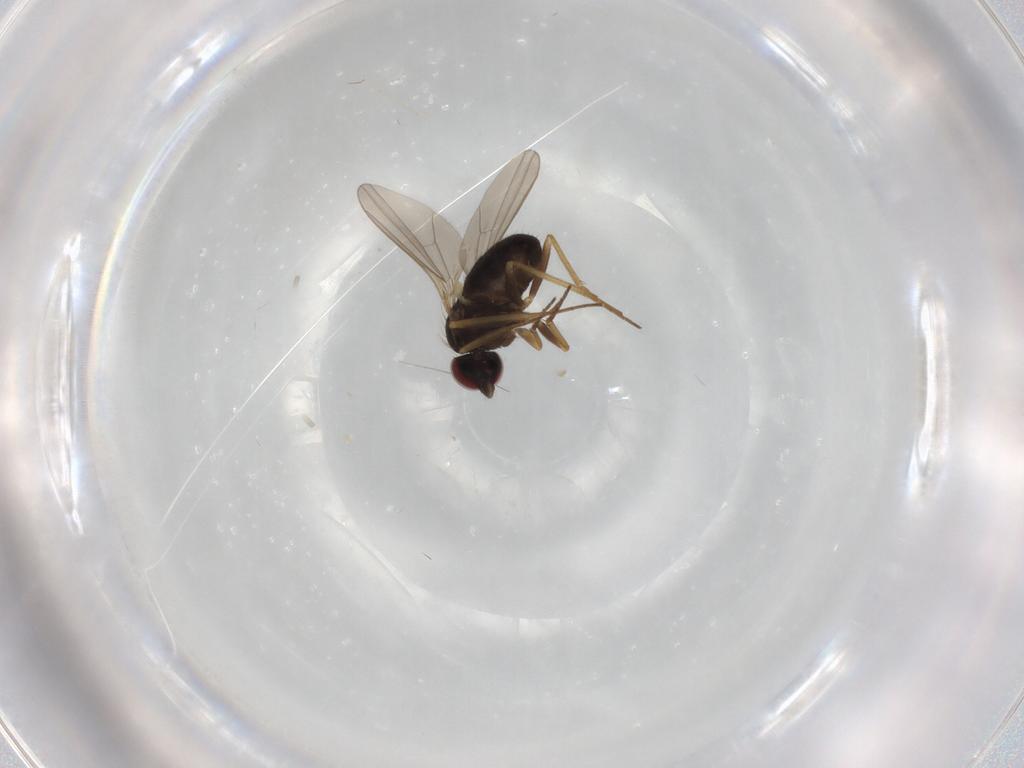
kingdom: Animalia
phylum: Arthropoda
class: Insecta
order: Diptera
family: Dolichopodidae
